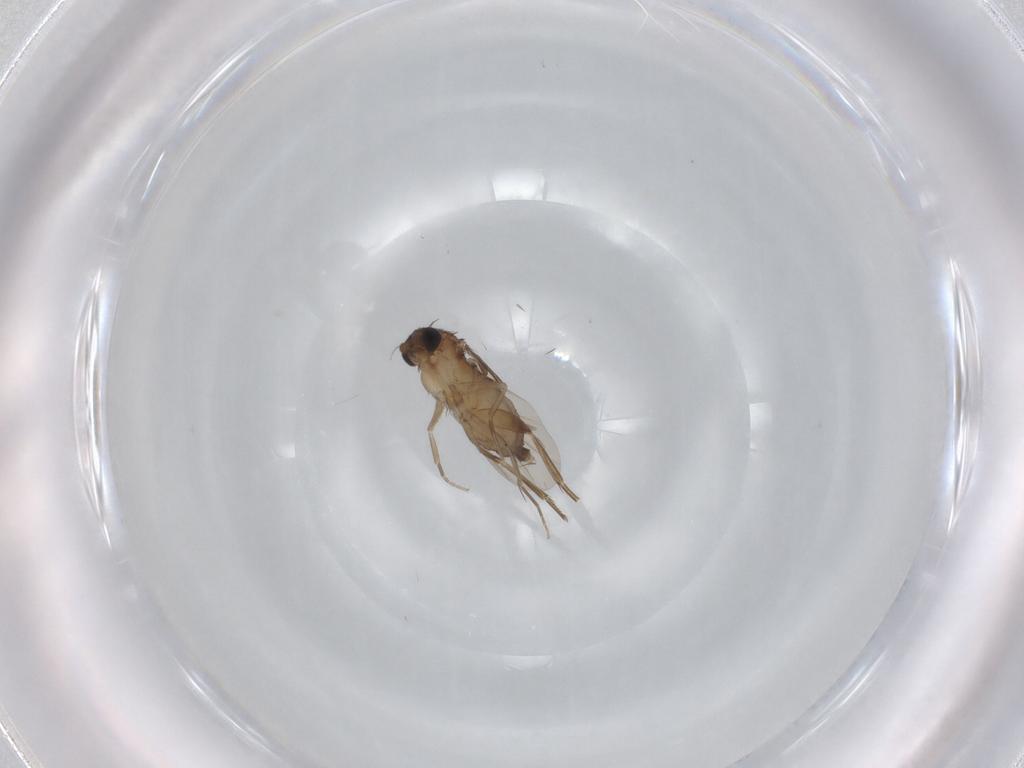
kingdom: Animalia
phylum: Arthropoda
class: Insecta
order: Diptera
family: Phoridae
